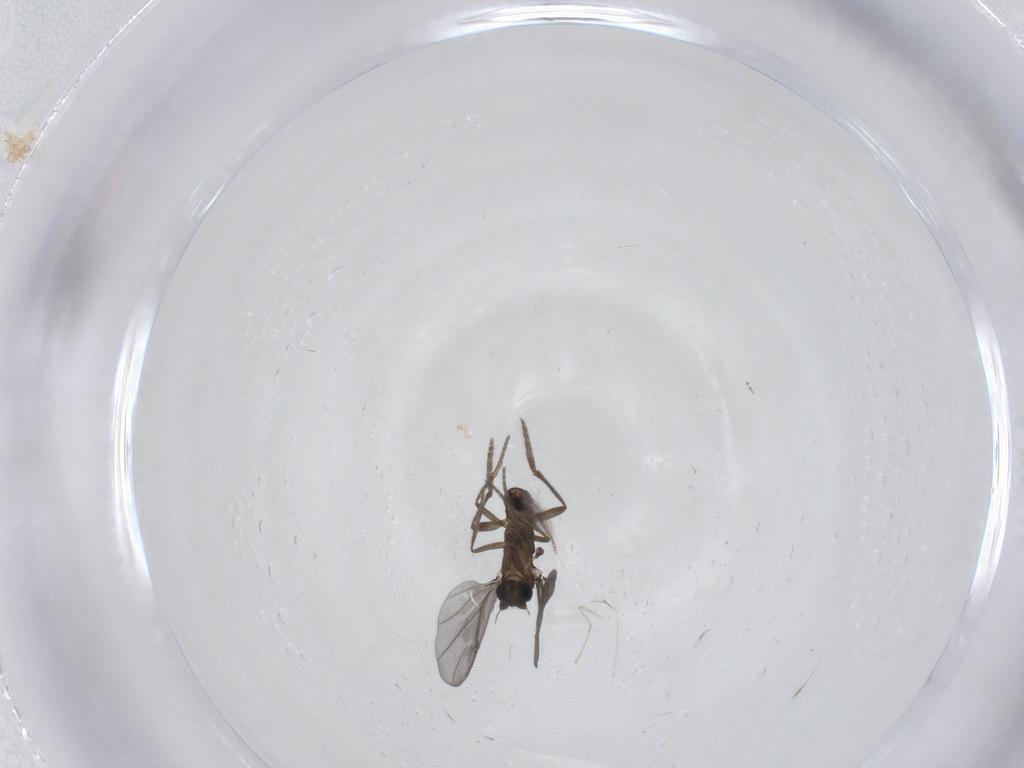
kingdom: Animalia
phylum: Arthropoda
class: Insecta
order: Diptera
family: Phoridae
